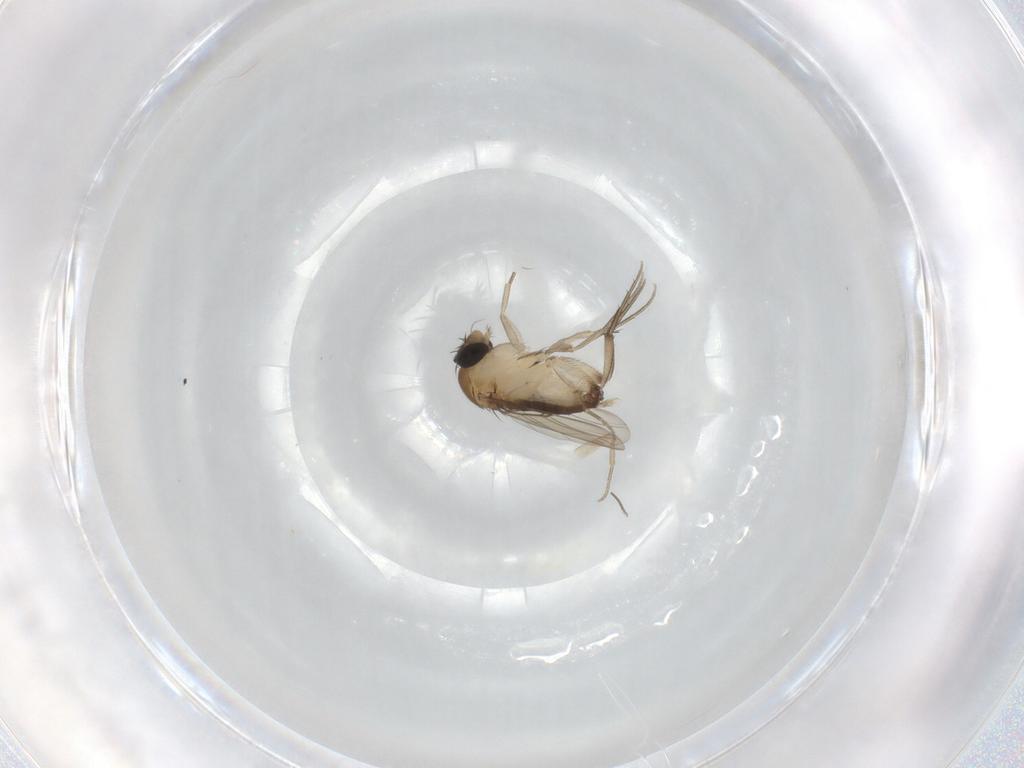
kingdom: Animalia
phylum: Arthropoda
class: Insecta
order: Diptera
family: Phoridae
